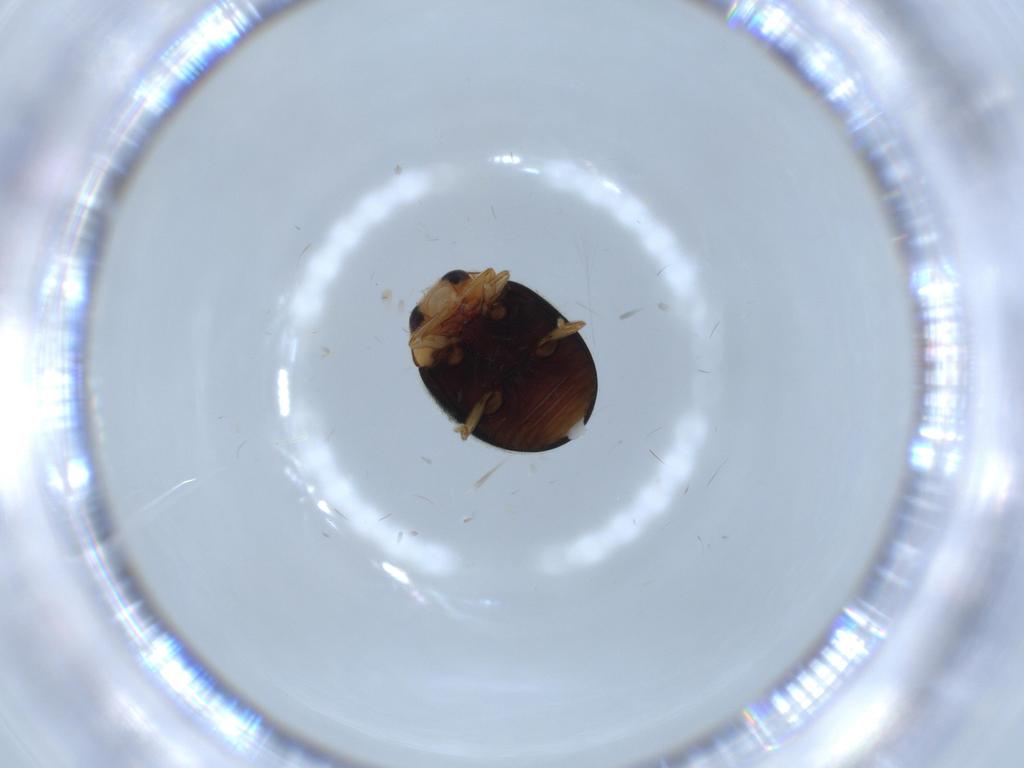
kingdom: Animalia
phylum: Arthropoda
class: Insecta
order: Coleoptera
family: Chrysomelidae
